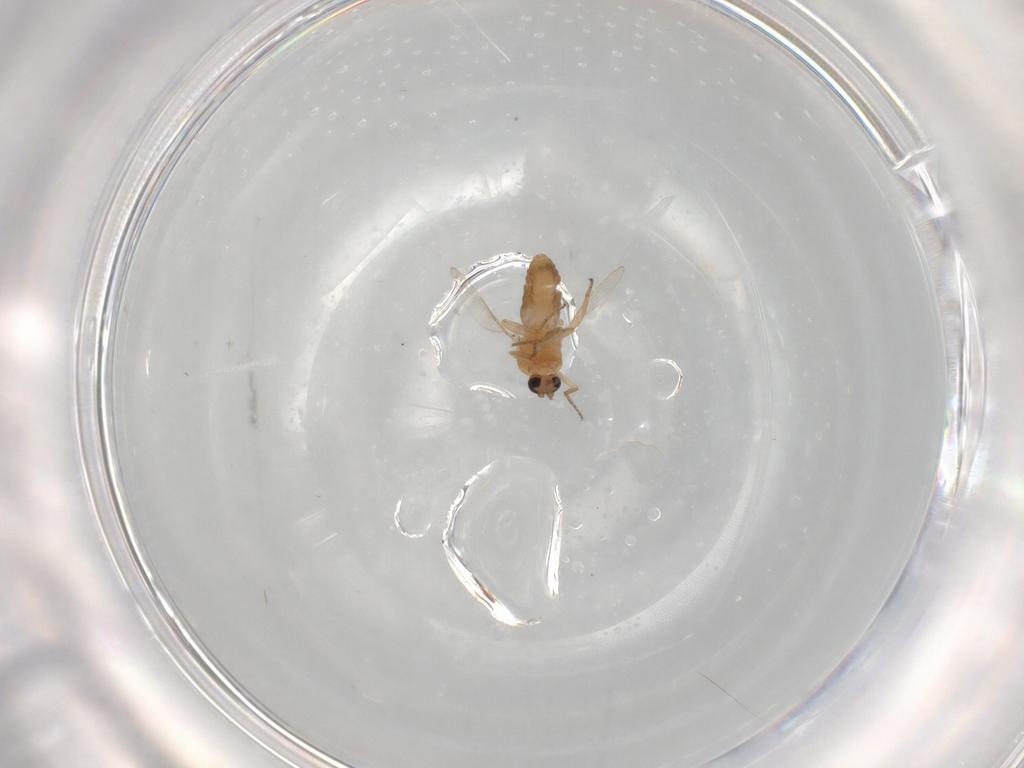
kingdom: Animalia
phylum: Arthropoda
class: Insecta
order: Diptera
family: Ceratopogonidae
